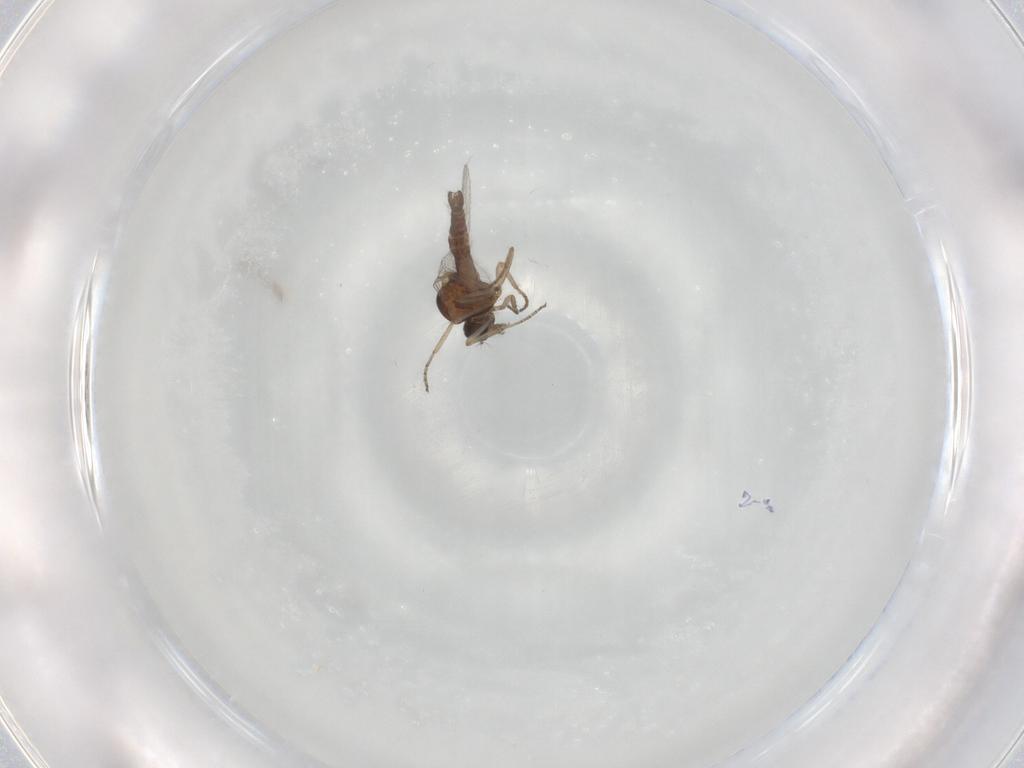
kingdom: Animalia
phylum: Arthropoda
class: Insecta
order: Diptera
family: Ceratopogonidae
